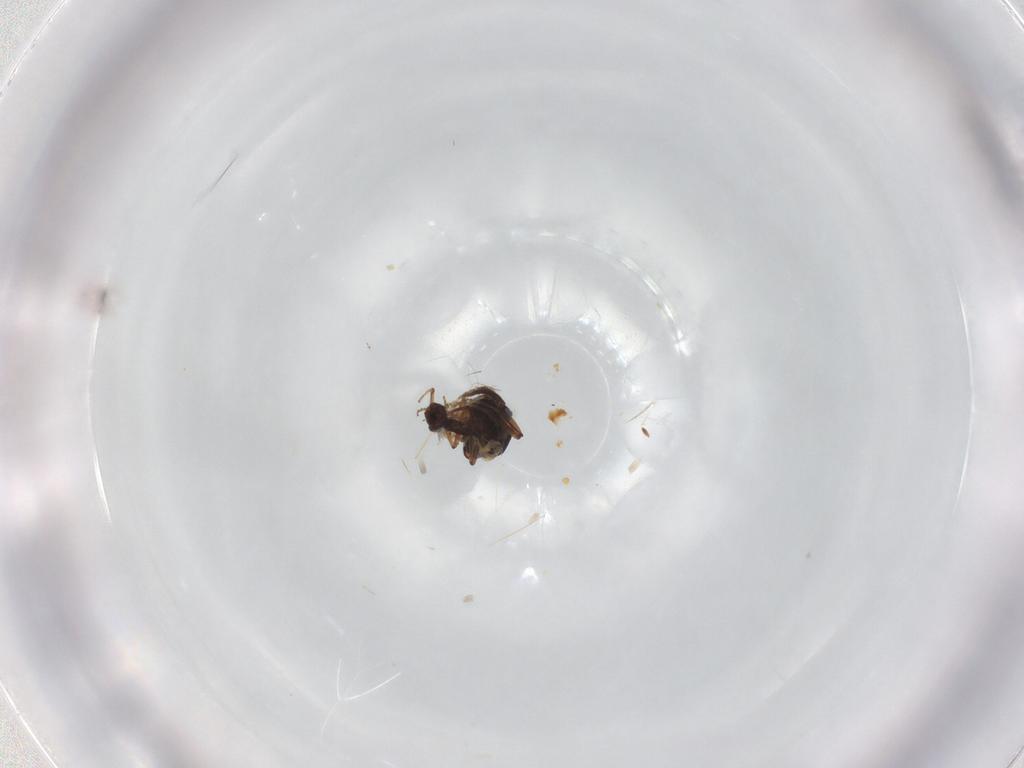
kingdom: Animalia
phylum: Arthropoda
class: Insecta
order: Diptera
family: Ceratopogonidae
